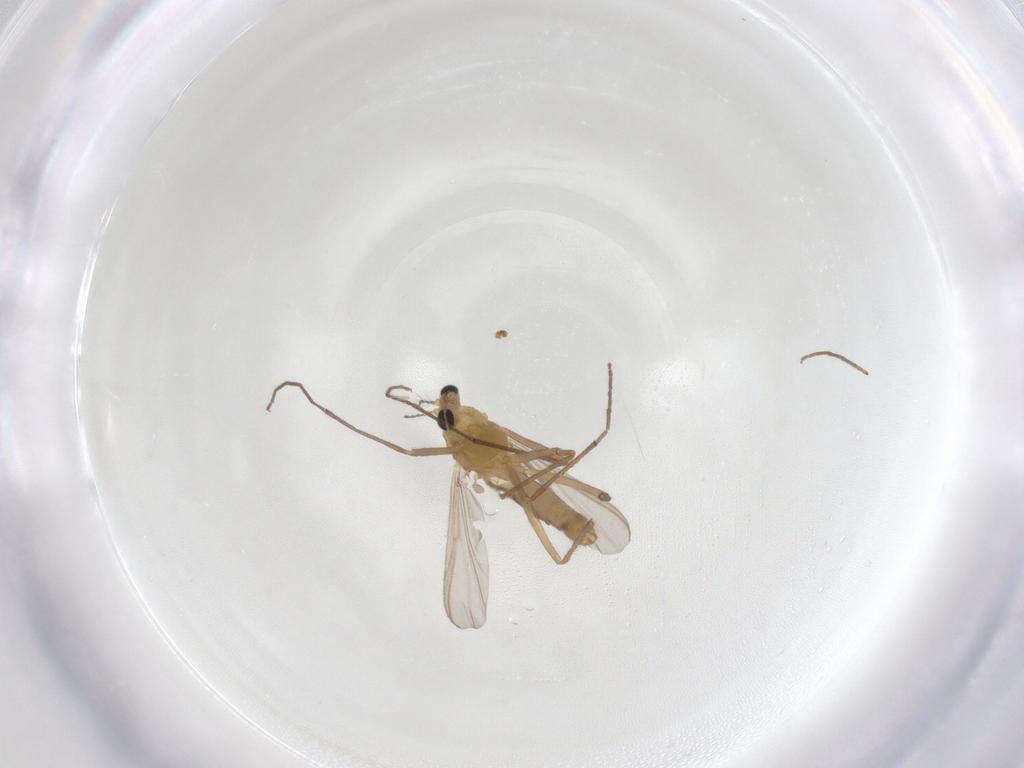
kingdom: Animalia
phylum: Arthropoda
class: Insecta
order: Diptera
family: Chironomidae
